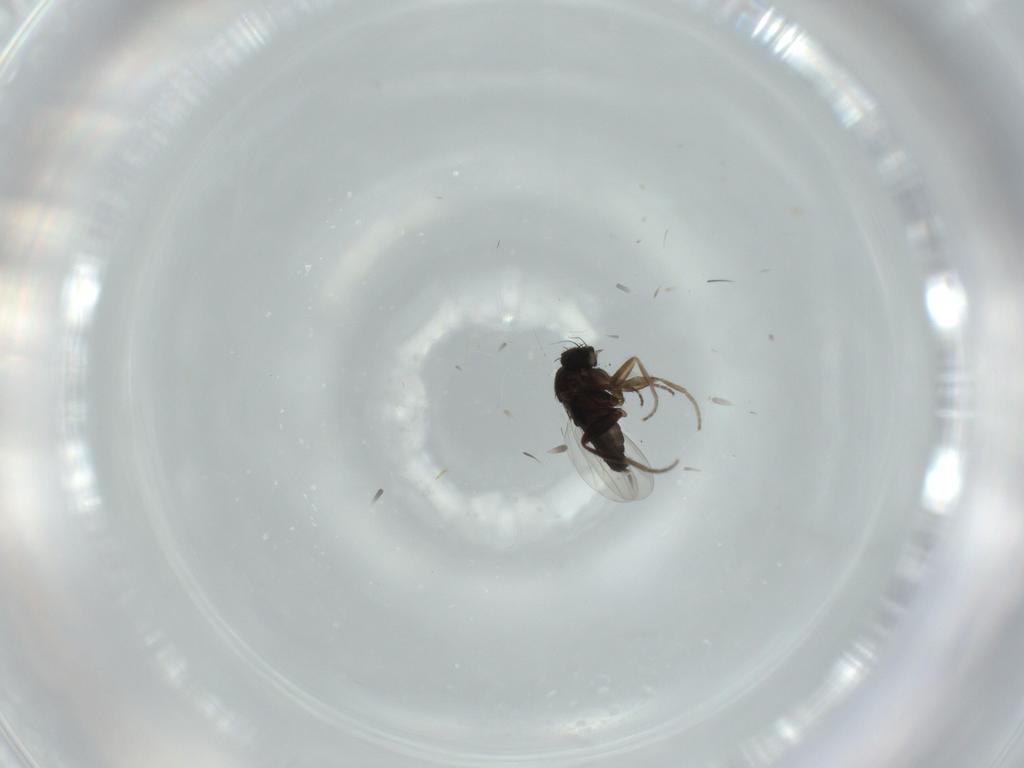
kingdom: Animalia
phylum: Arthropoda
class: Insecta
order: Diptera
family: Phoridae
